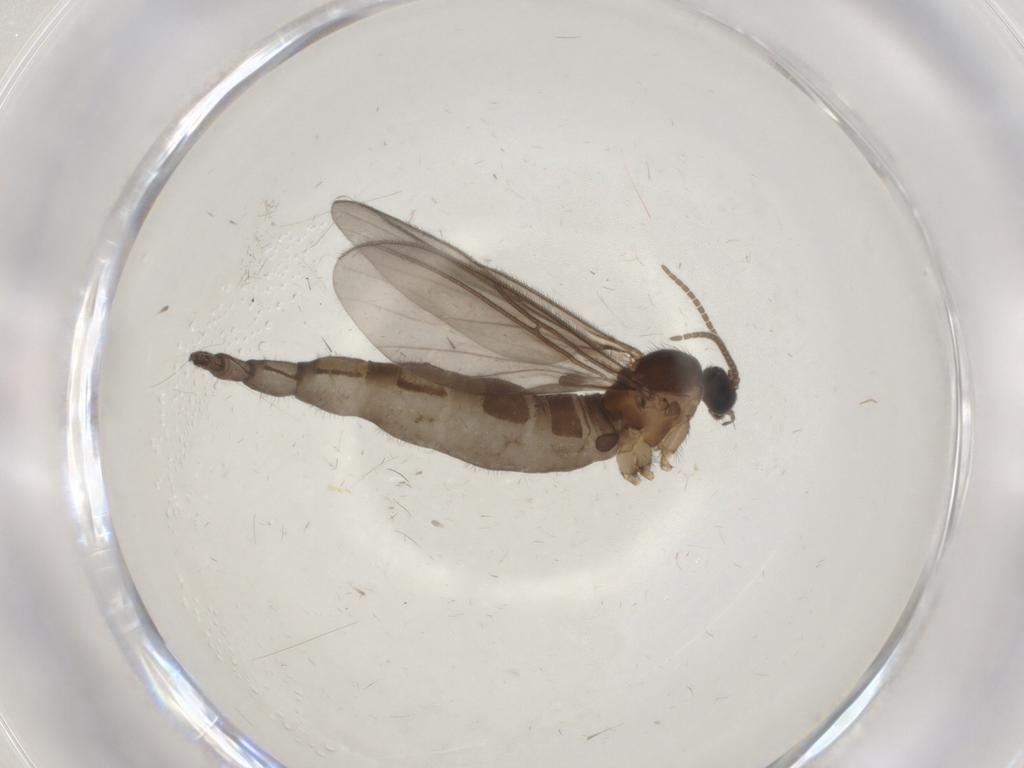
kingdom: Animalia
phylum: Arthropoda
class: Insecta
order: Diptera
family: Chironomidae
